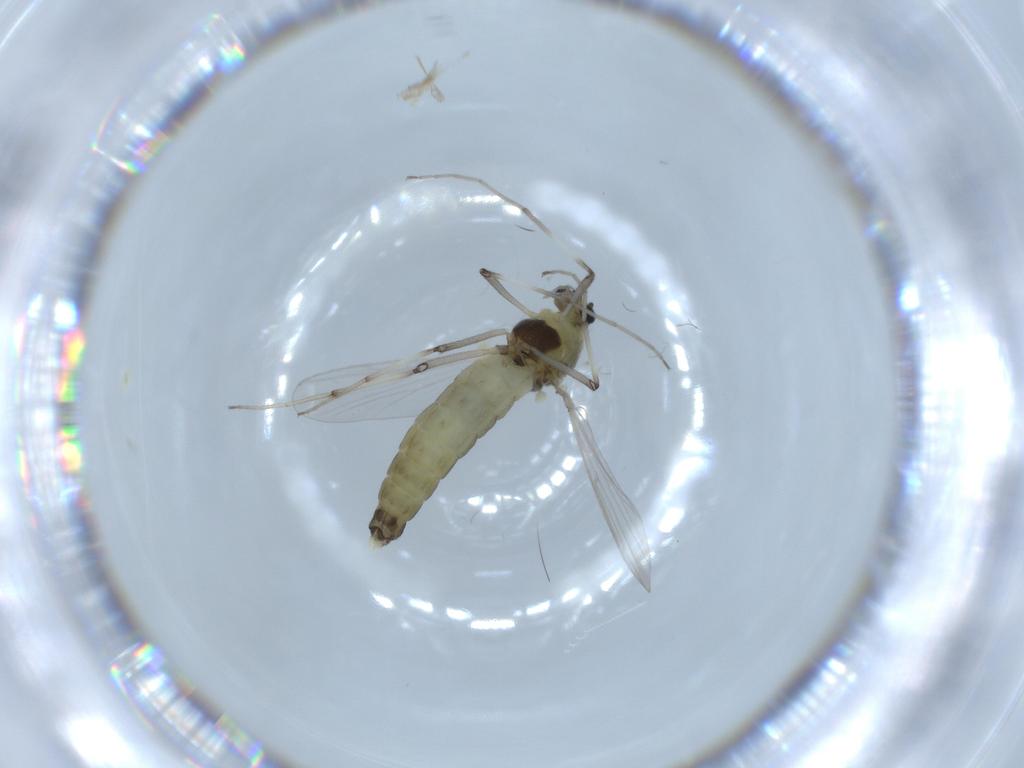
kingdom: Animalia
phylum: Arthropoda
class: Insecta
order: Diptera
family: Chironomidae
